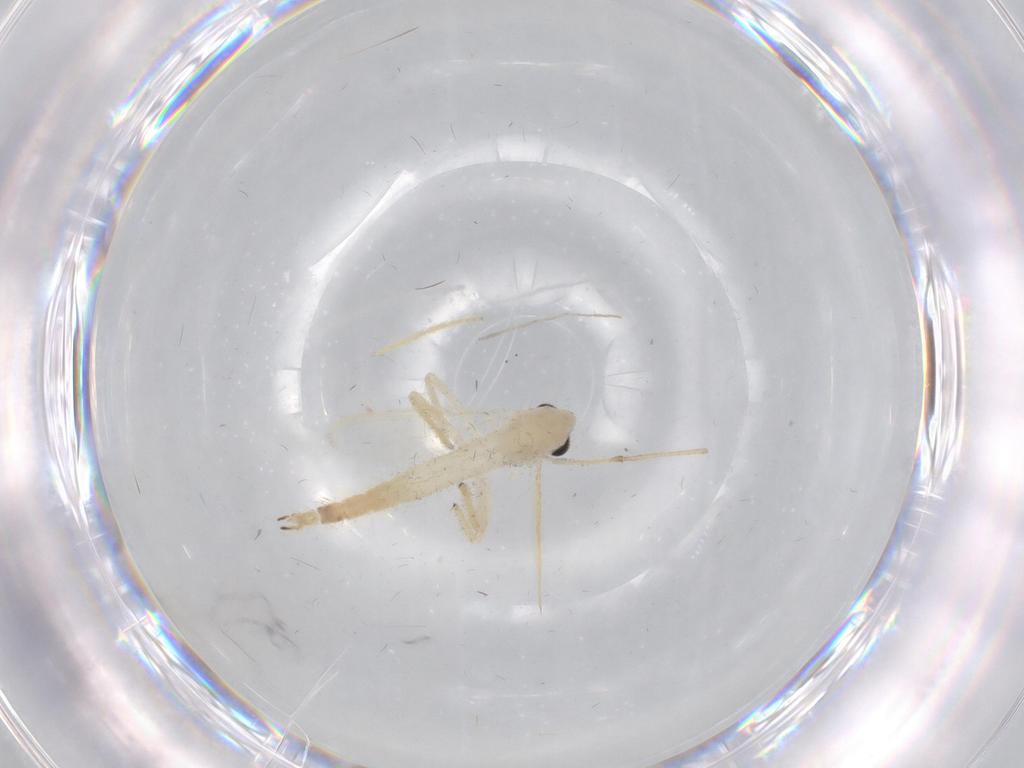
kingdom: Animalia
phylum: Arthropoda
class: Insecta
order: Diptera
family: Chironomidae
